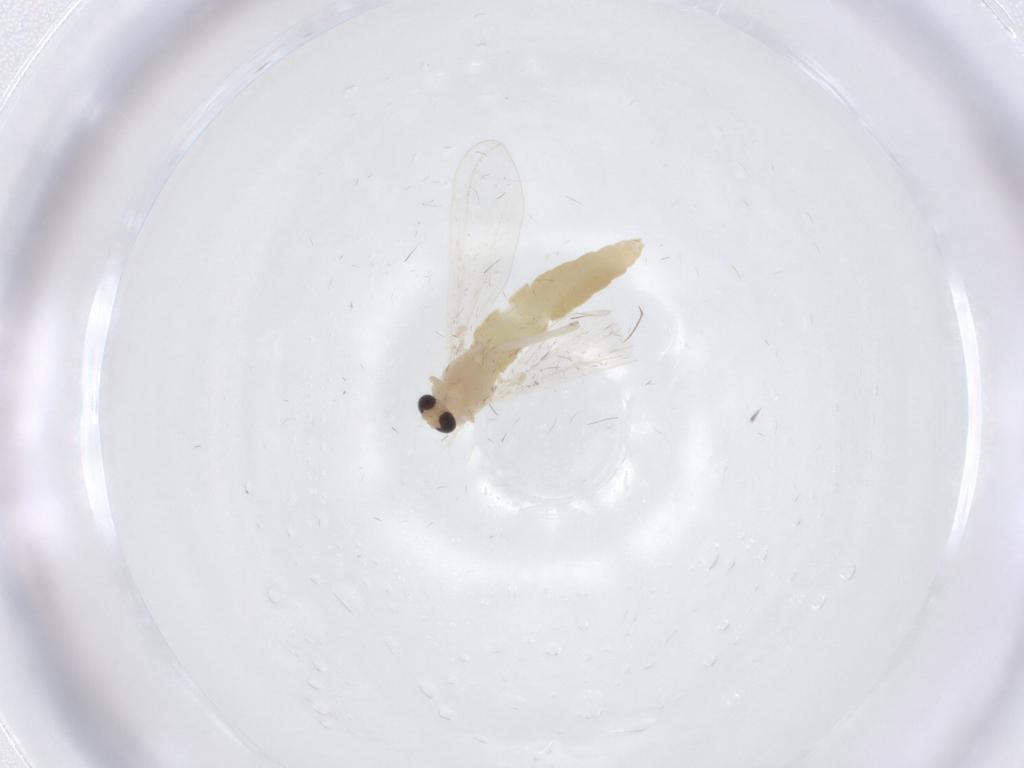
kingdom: Animalia
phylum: Arthropoda
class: Insecta
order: Diptera
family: Chironomidae
